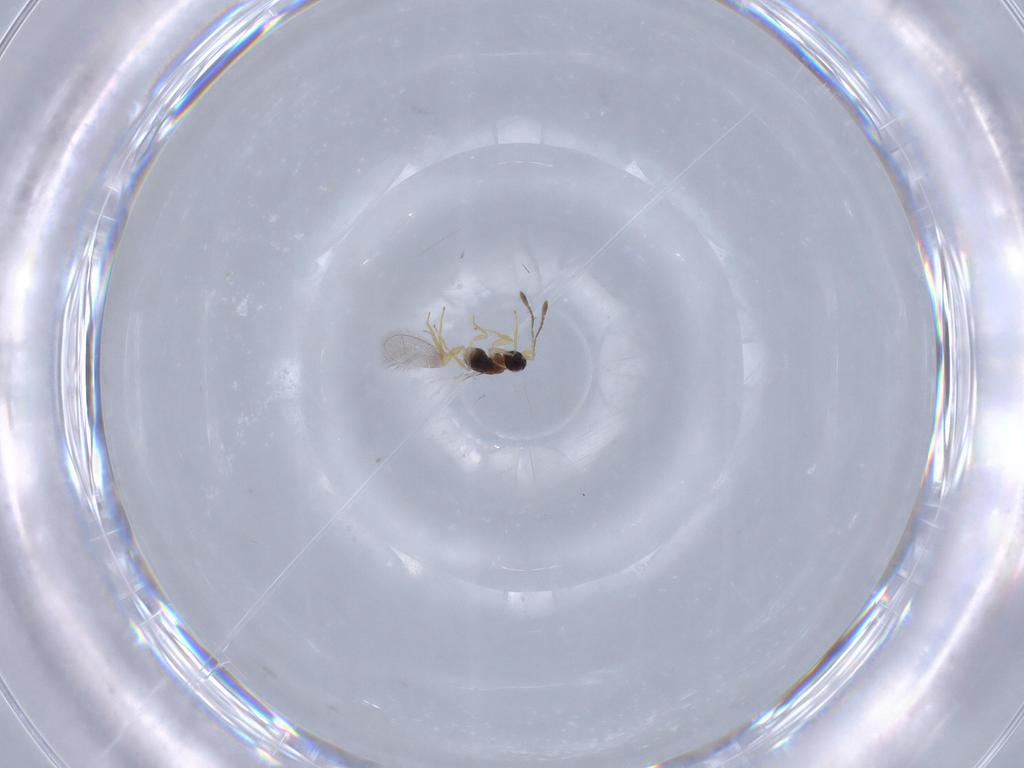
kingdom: Animalia
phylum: Arthropoda
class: Insecta
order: Hymenoptera
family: Mymaridae
